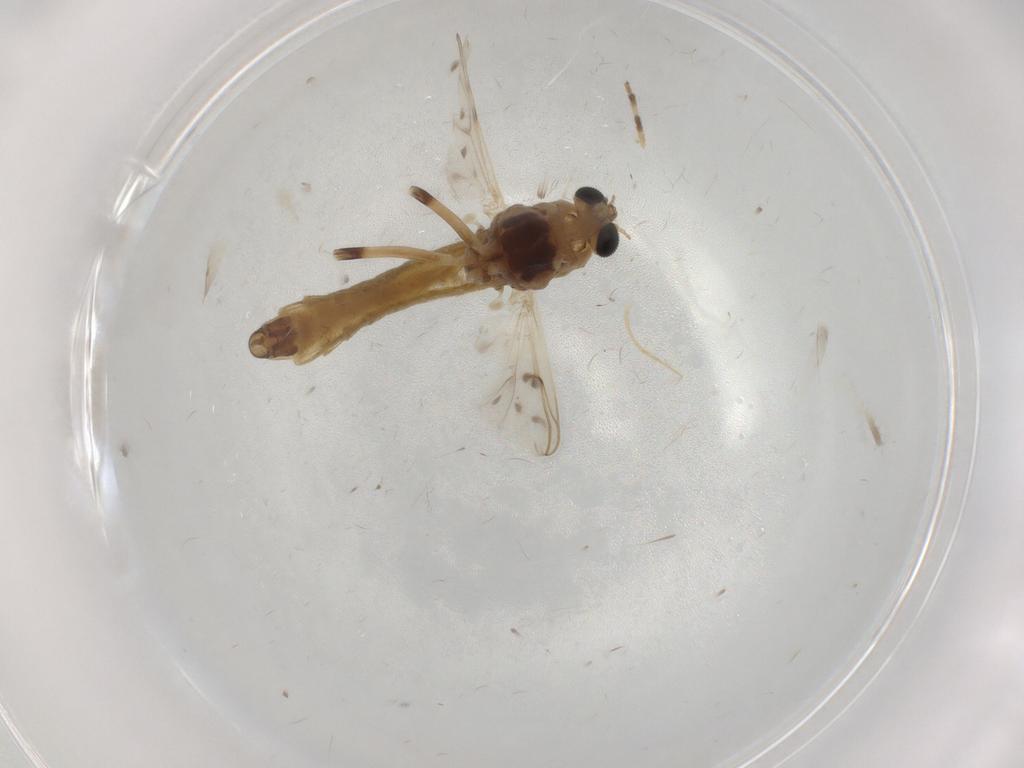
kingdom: Animalia
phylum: Arthropoda
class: Insecta
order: Diptera
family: Chironomidae
